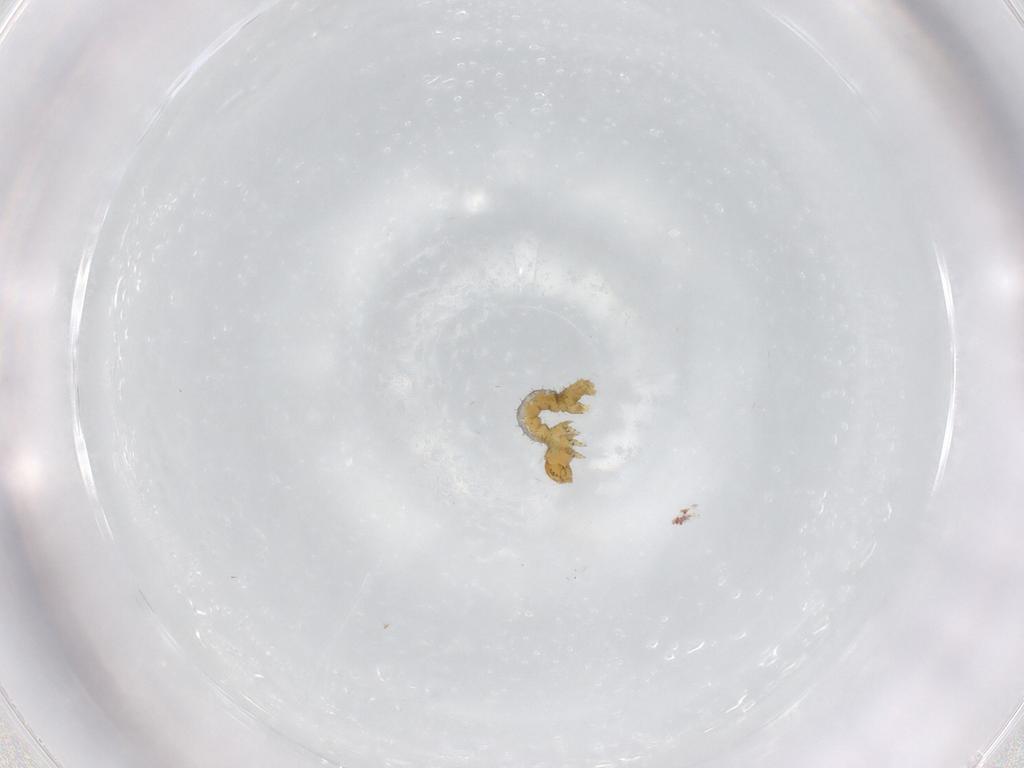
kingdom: Animalia
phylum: Arthropoda
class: Insecta
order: Lepidoptera
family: Geometridae
